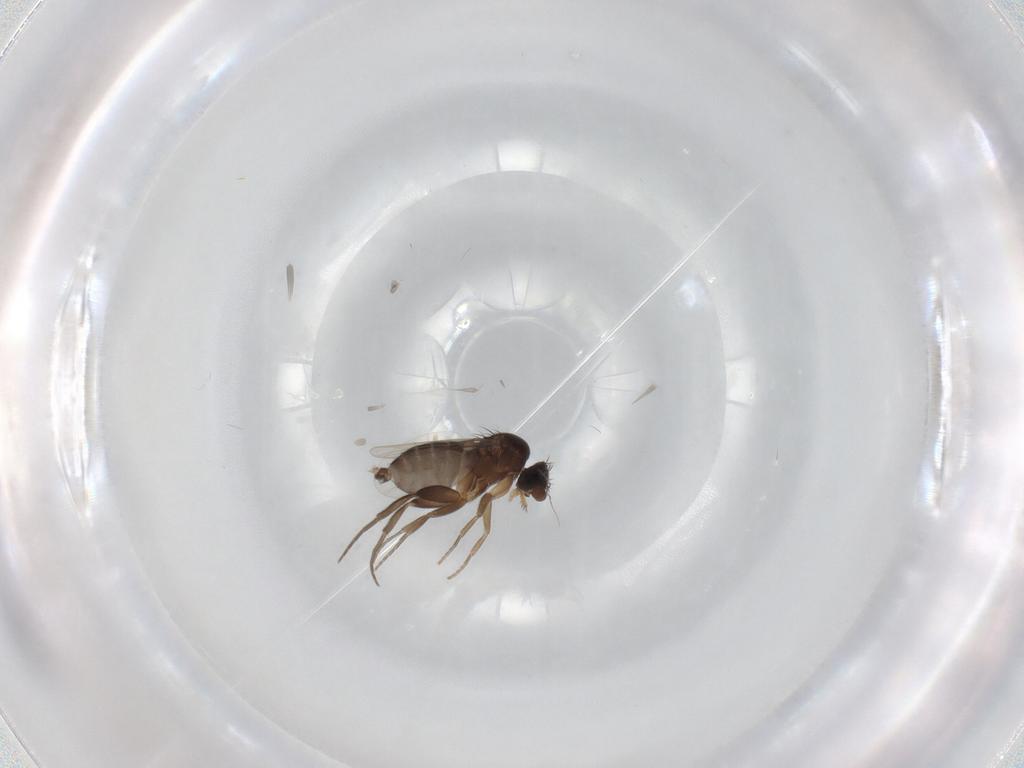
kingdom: Animalia
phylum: Arthropoda
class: Insecta
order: Diptera
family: Phoridae
